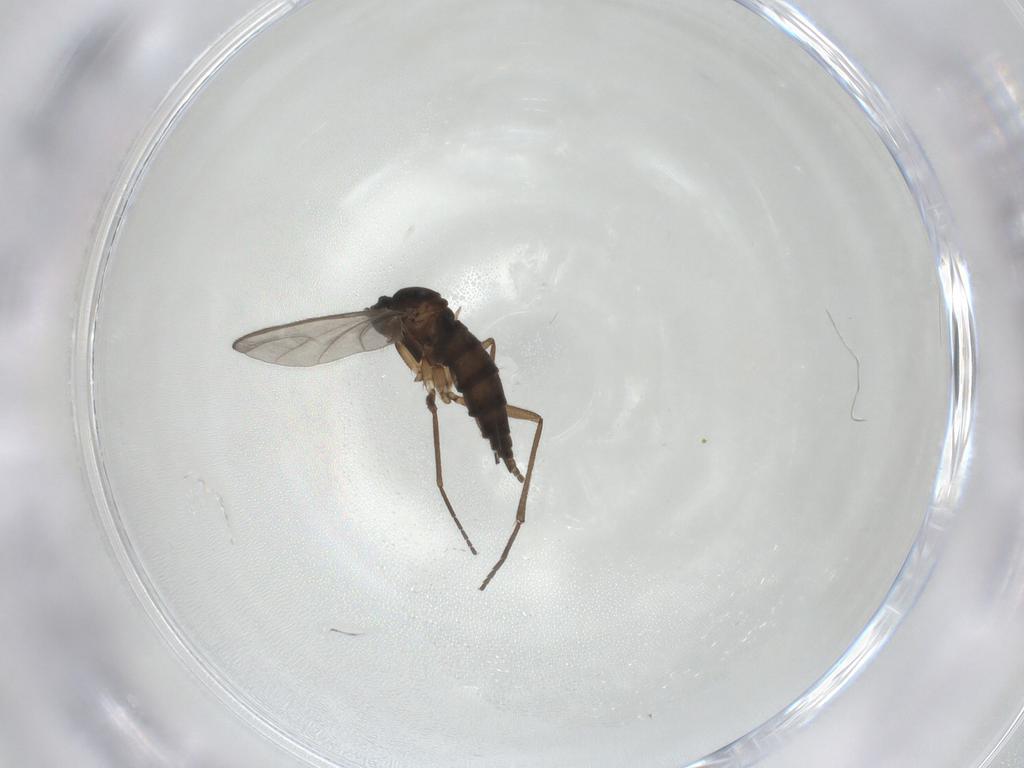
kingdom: Animalia
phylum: Arthropoda
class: Insecta
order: Diptera
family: Sciaridae
